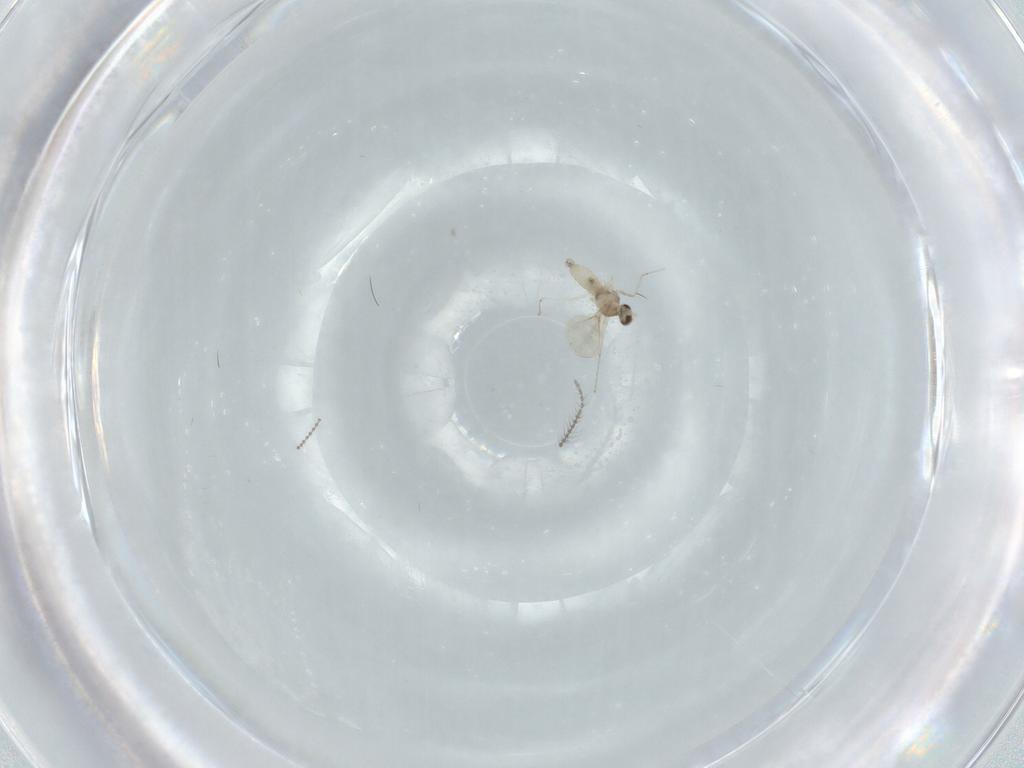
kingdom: Animalia
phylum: Arthropoda
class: Insecta
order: Diptera
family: Cecidomyiidae
